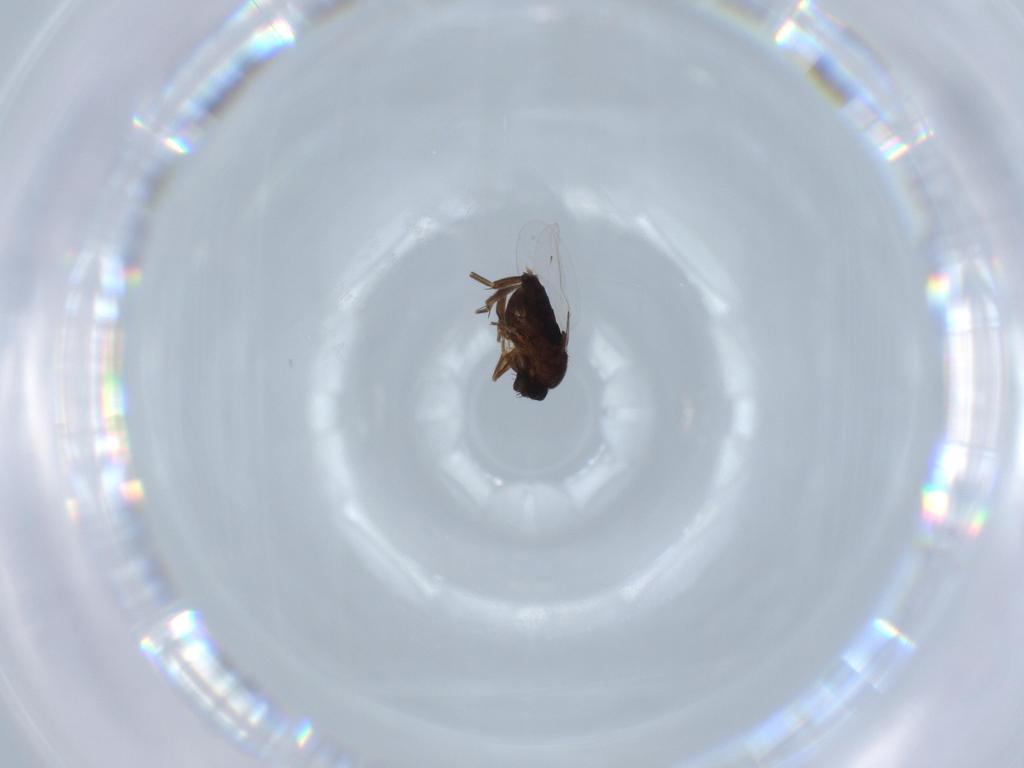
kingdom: Animalia
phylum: Arthropoda
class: Insecta
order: Diptera
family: Phoridae
